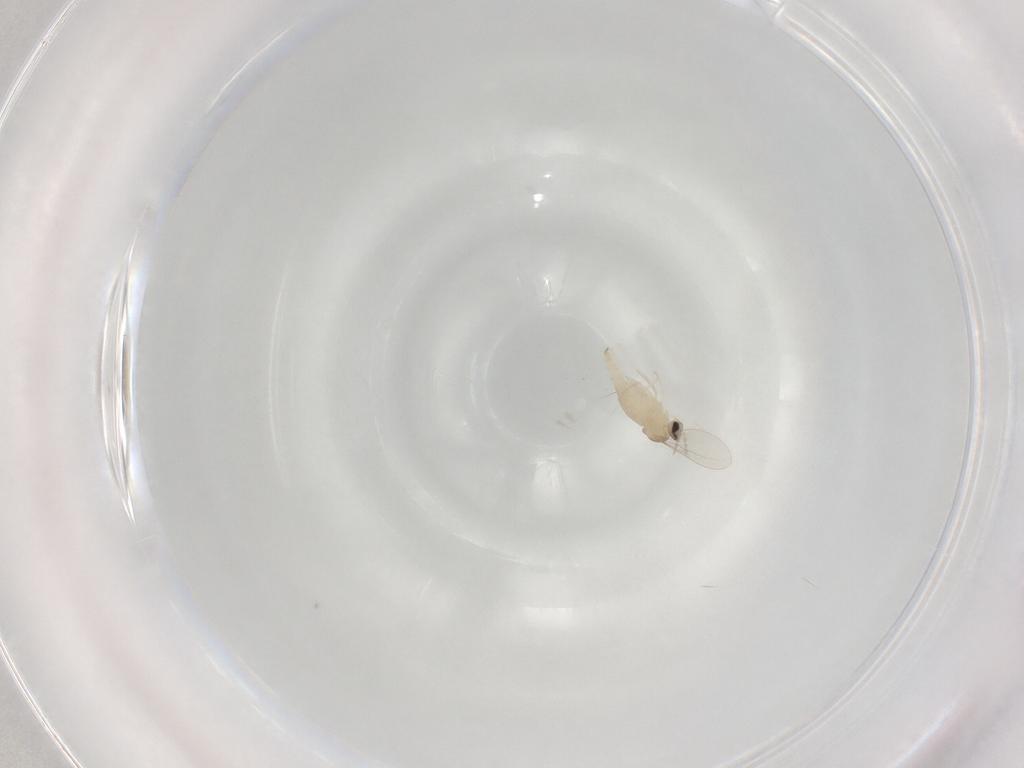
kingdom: Animalia
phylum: Arthropoda
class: Insecta
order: Diptera
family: Cecidomyiidae
